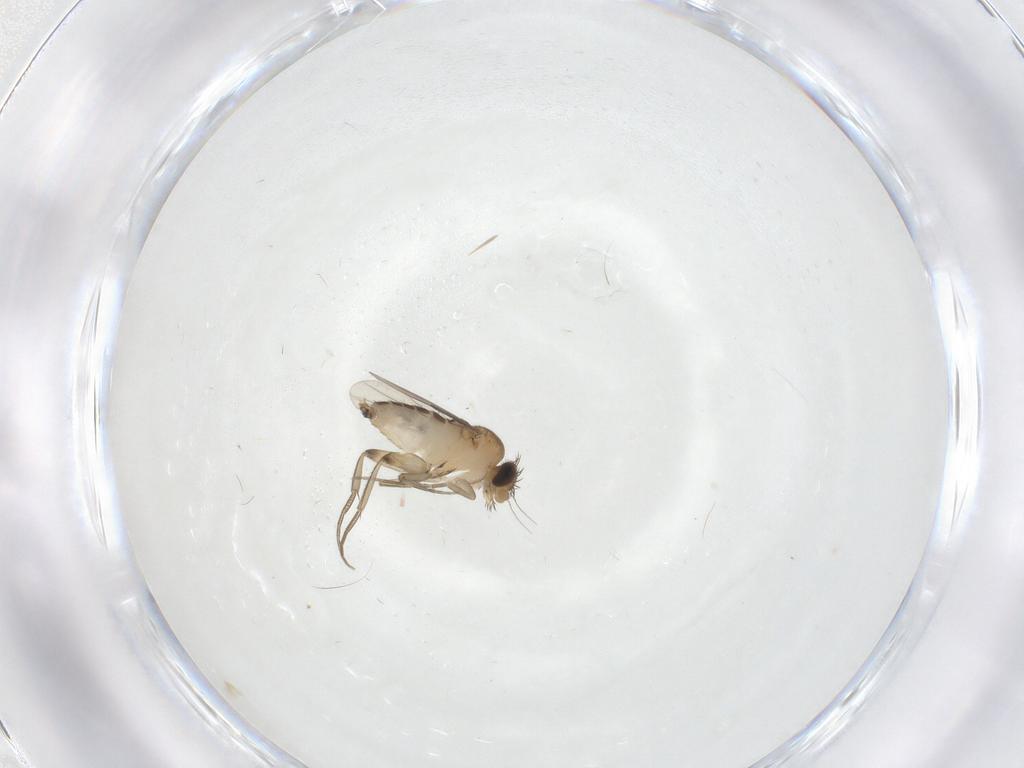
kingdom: Animalia
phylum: Arthropoda
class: Insecta
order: Diptera
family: Phoridae
